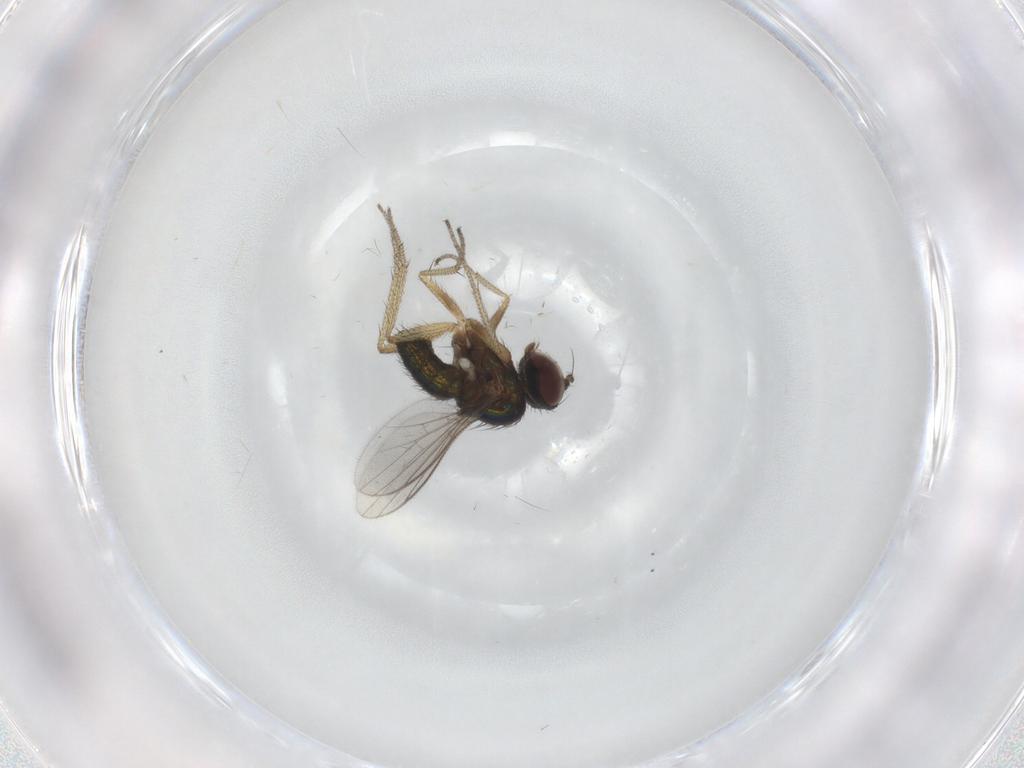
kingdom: Animalia
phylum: Arthropoda
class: Insecta
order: Diptera
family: Dolichopodidae
